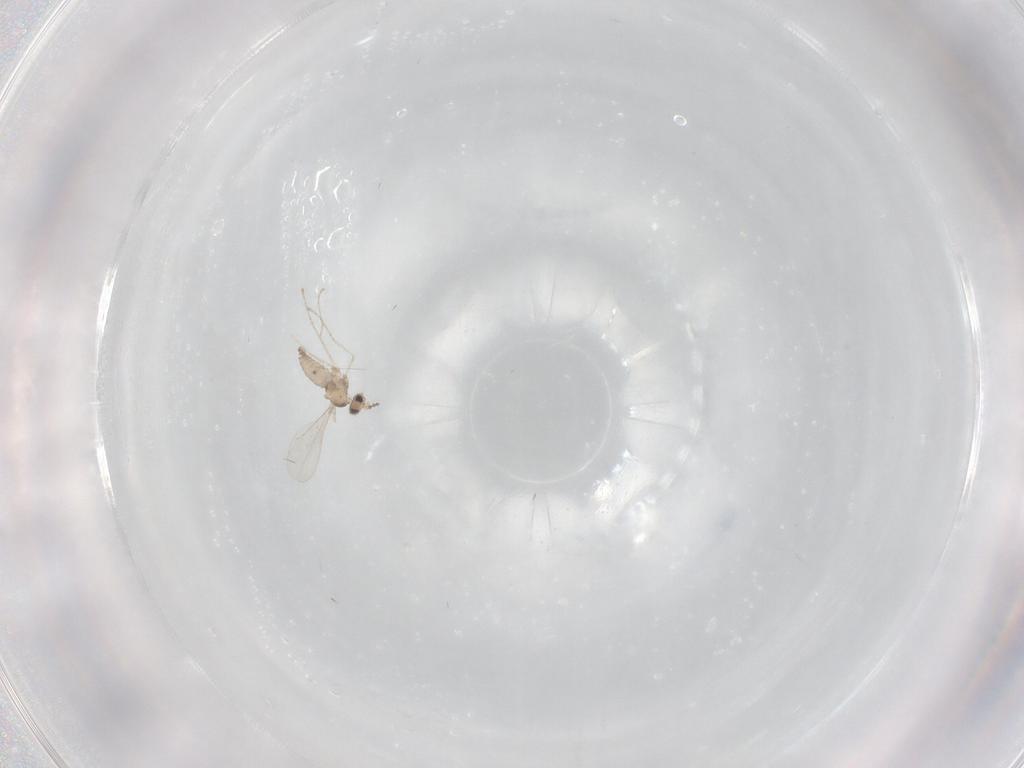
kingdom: Animalia
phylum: Arthropoda
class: Insecta
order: Diptera
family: Cecidomyiidae
